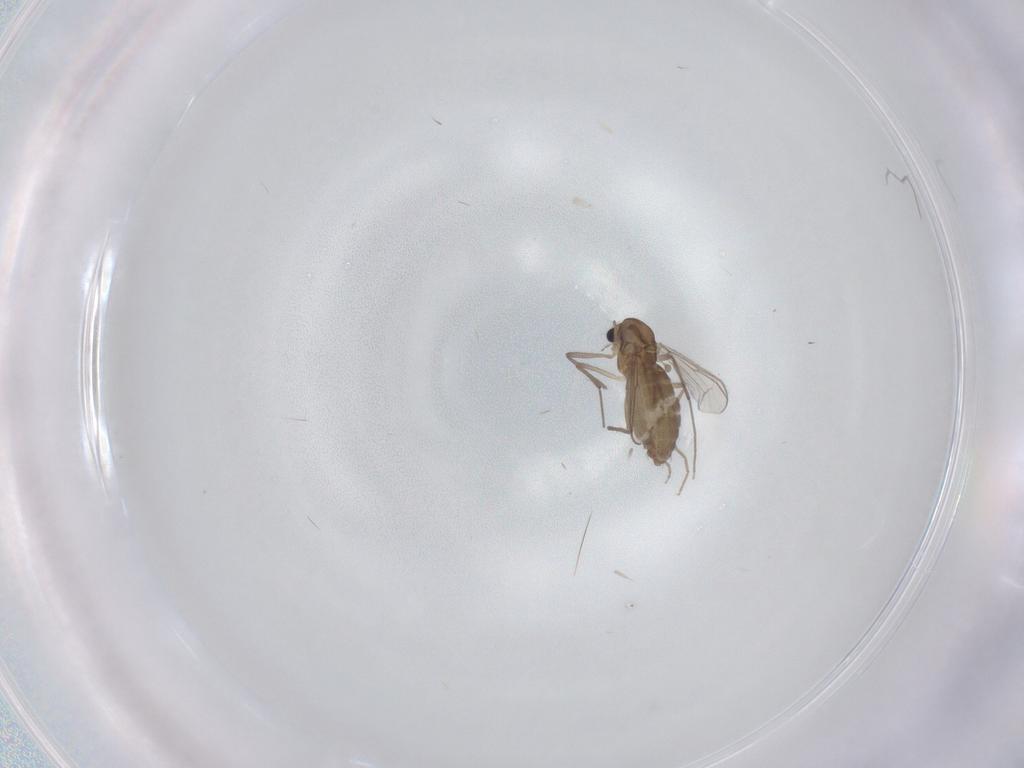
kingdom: Animalia
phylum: Arthropoda
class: Insecta
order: Diptera
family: Chironomidae
